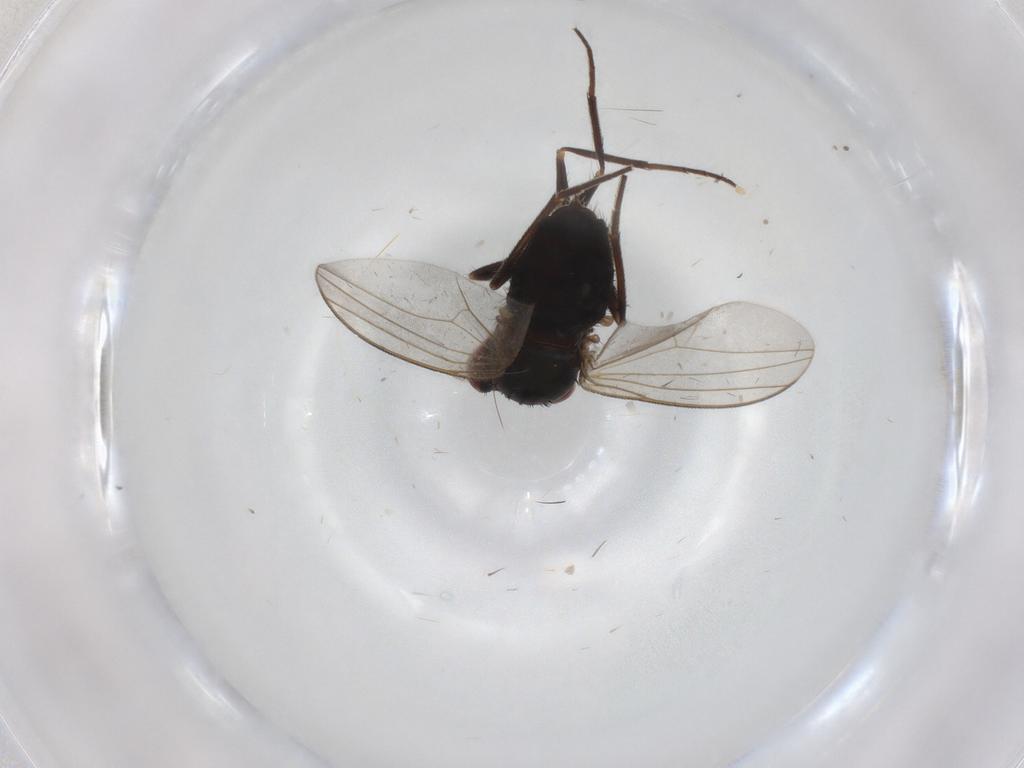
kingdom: Animalia
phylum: Arthropoda
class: Insecta
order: Diptera
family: Dolichopodidae
